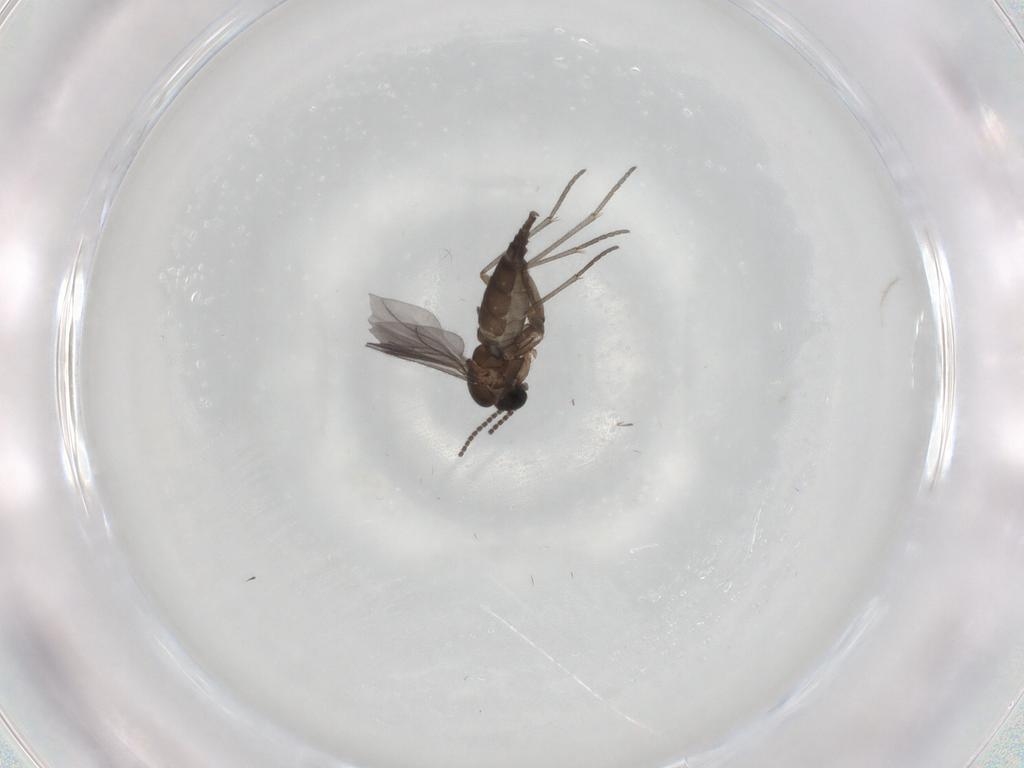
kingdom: Animalia
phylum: Arthropoda
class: Insecta
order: Diptera
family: Sciaridae
